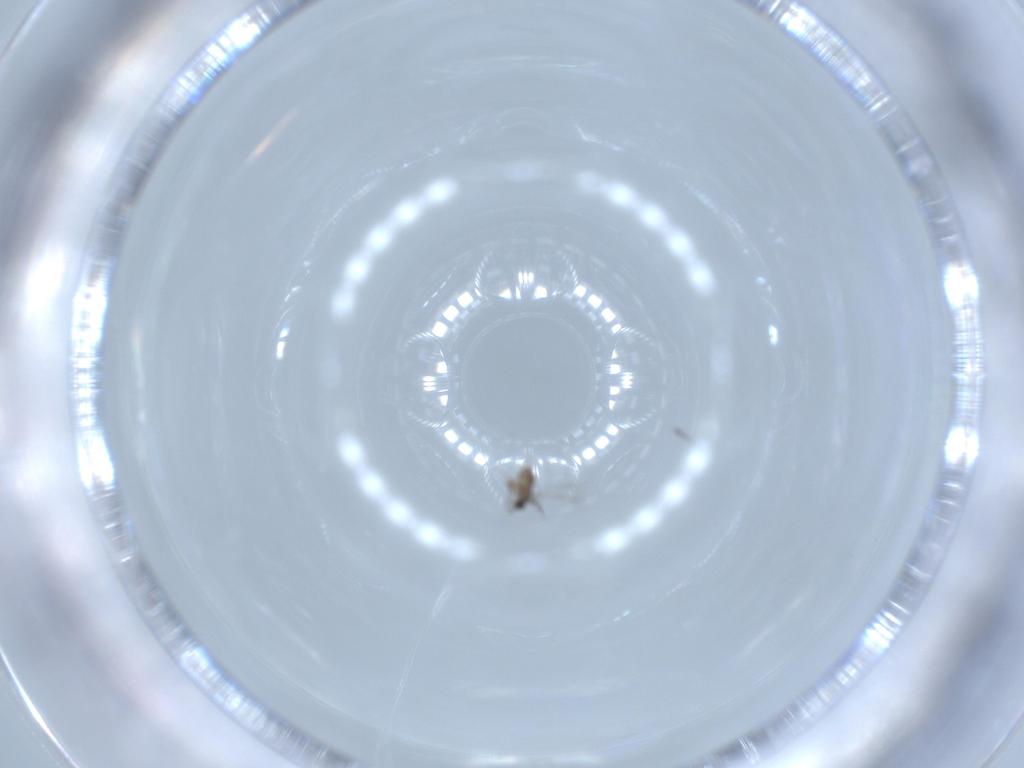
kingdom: Animalia
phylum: Arthropoda
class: Insecta
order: Hymenoptera
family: Mymaridae
